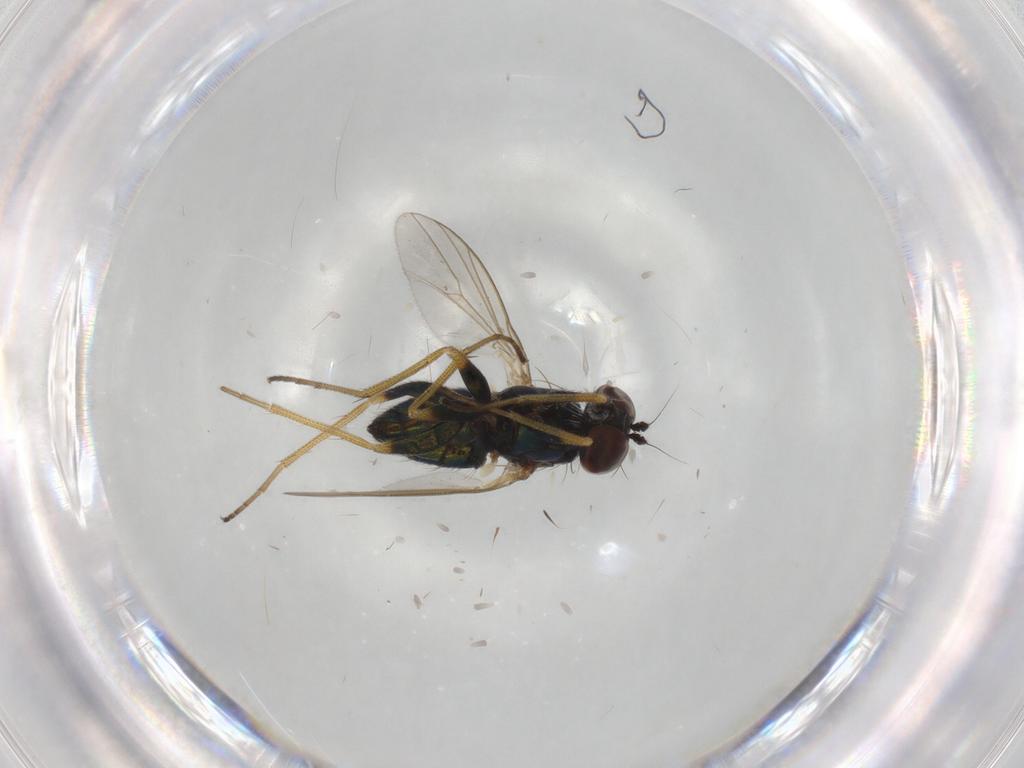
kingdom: Animalia
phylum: Arthropoda
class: Insecta
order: Diptera
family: Dolichopodidae
